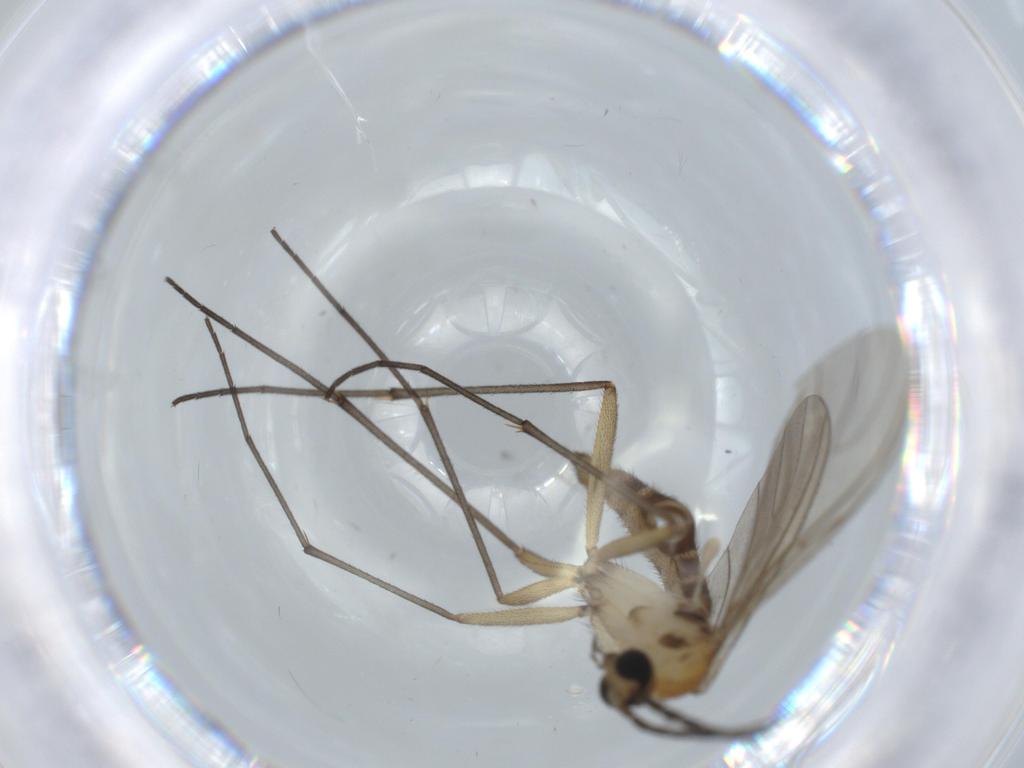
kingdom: Animalia
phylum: Arthropoda
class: Insecta
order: Diptera
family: Sciaridae
